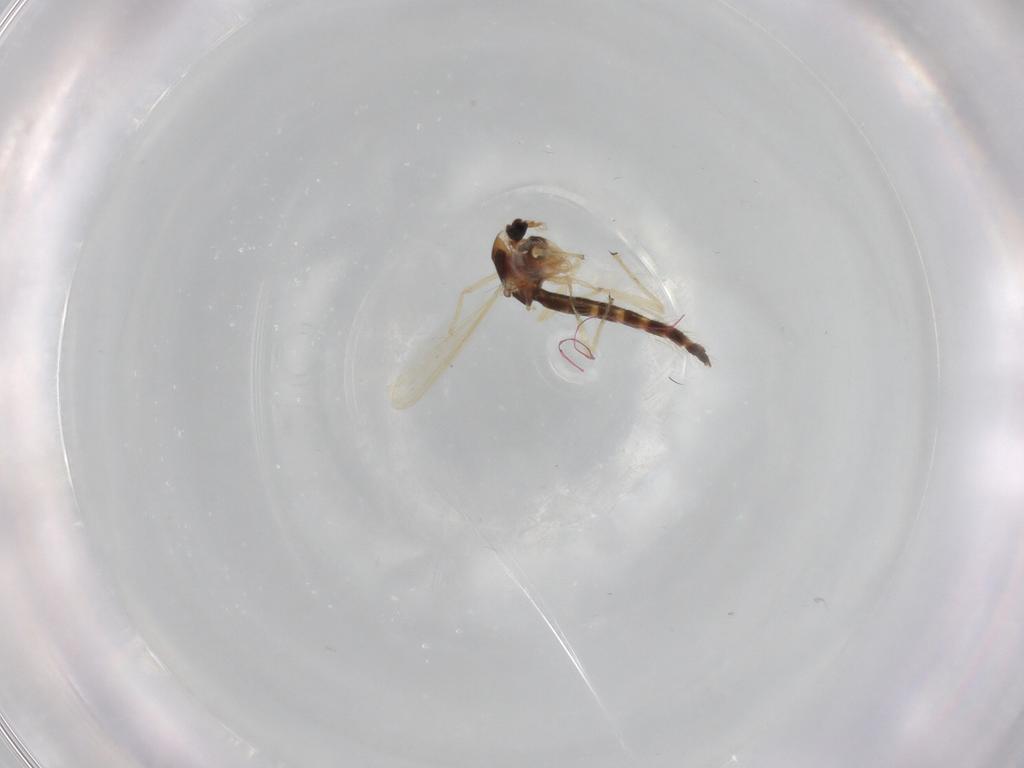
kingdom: Animalia
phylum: Arthropoda
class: Insecta
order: Diptera
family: Chironomidae
